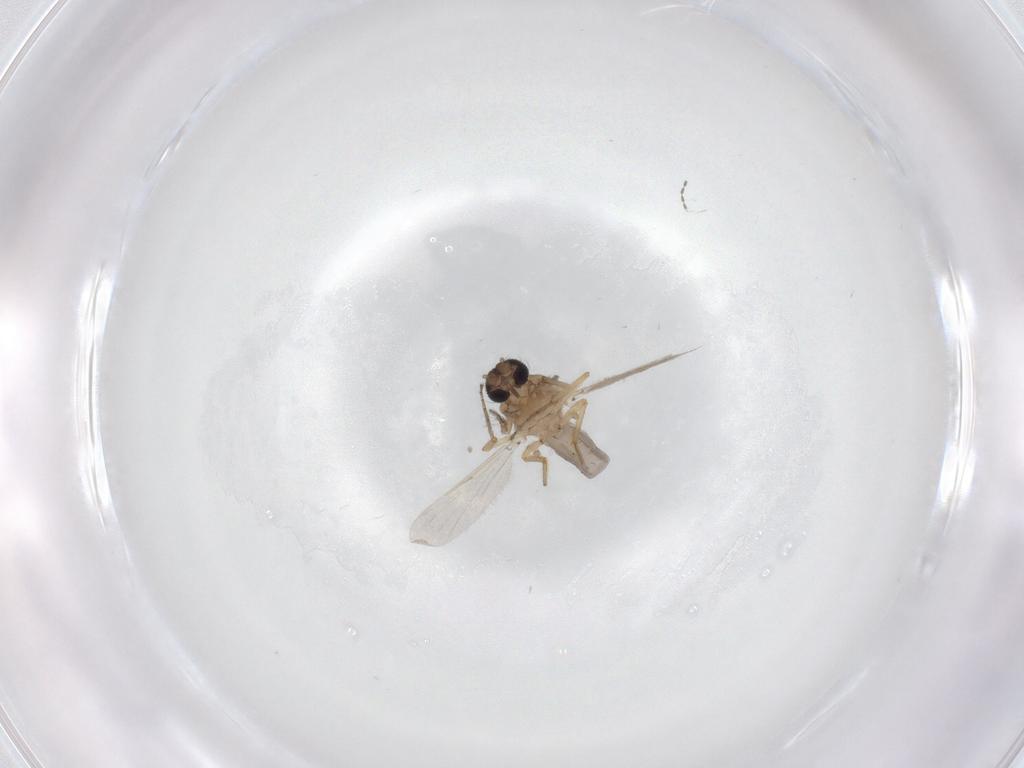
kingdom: Animalia
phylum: Arthropoda
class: Insecta
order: Diptera
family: Ceratopogonidae
